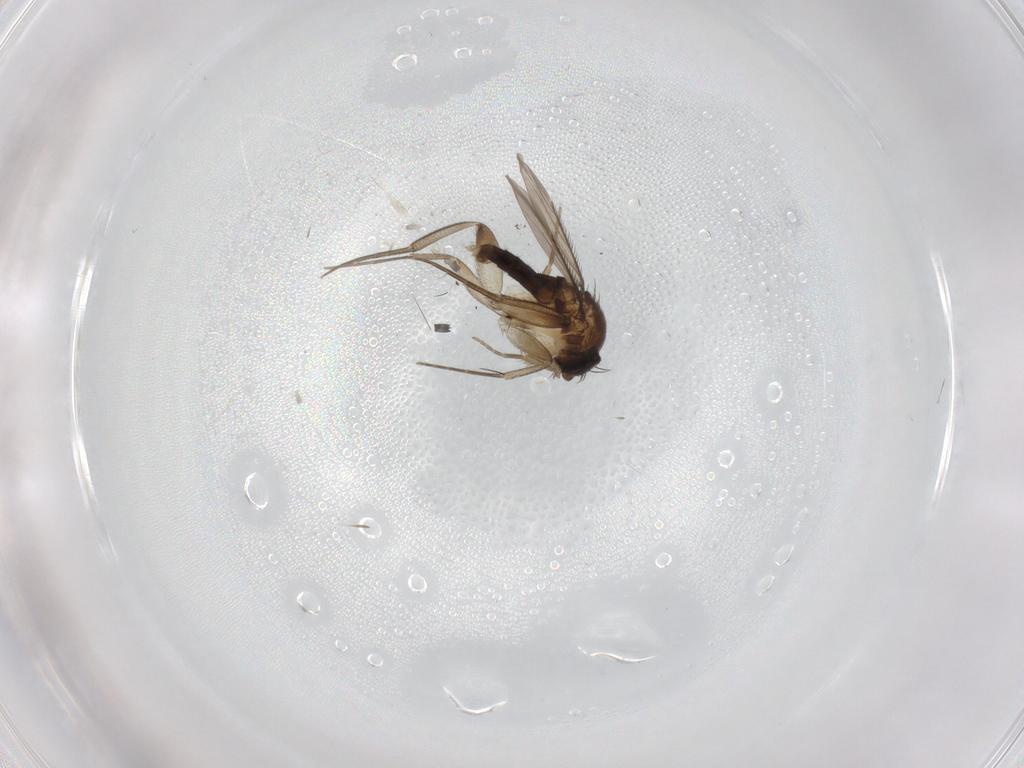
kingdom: Animalia
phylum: Arthropoda
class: Insecta
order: Diptera
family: Phoridae
